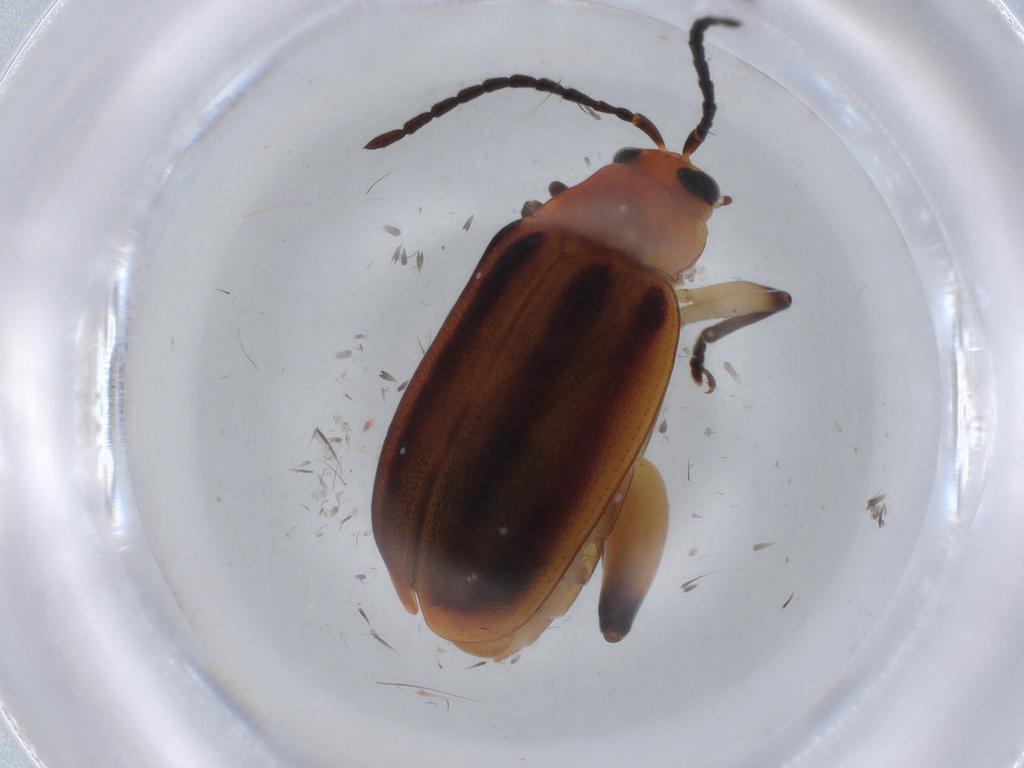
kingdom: Animalia
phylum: Arthropoda
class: Insecta
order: Coleoptera
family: Chrysomelidae
